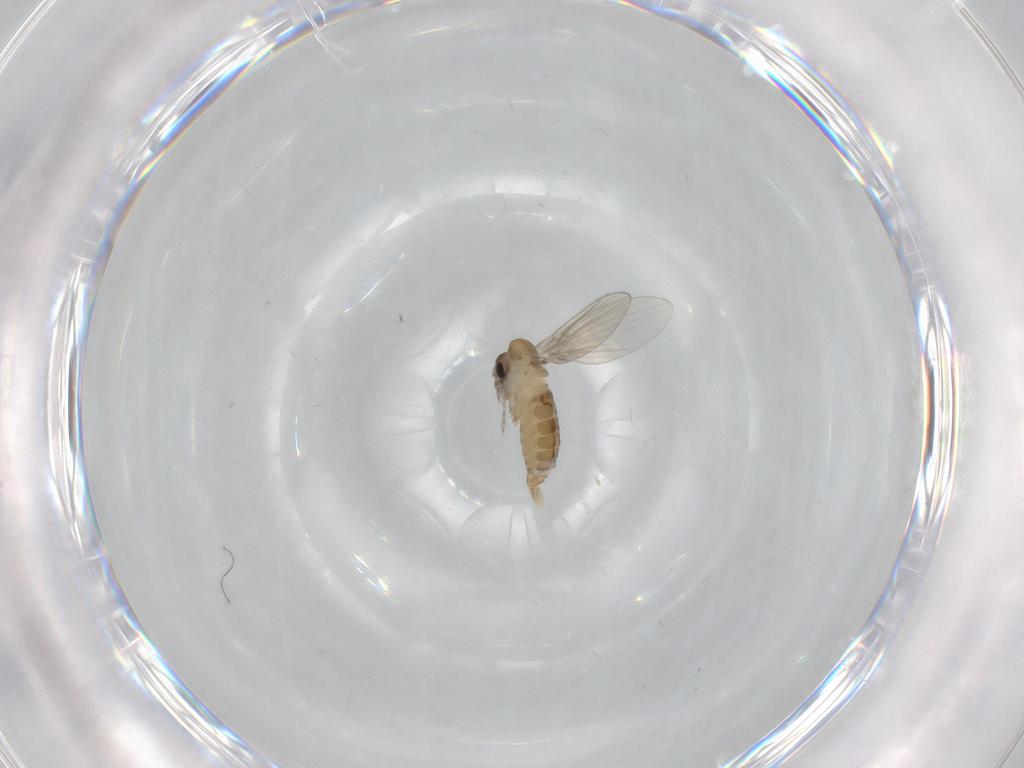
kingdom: Animalia
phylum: Arthropoda
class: Insecta
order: Diptera
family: Psychodidae
